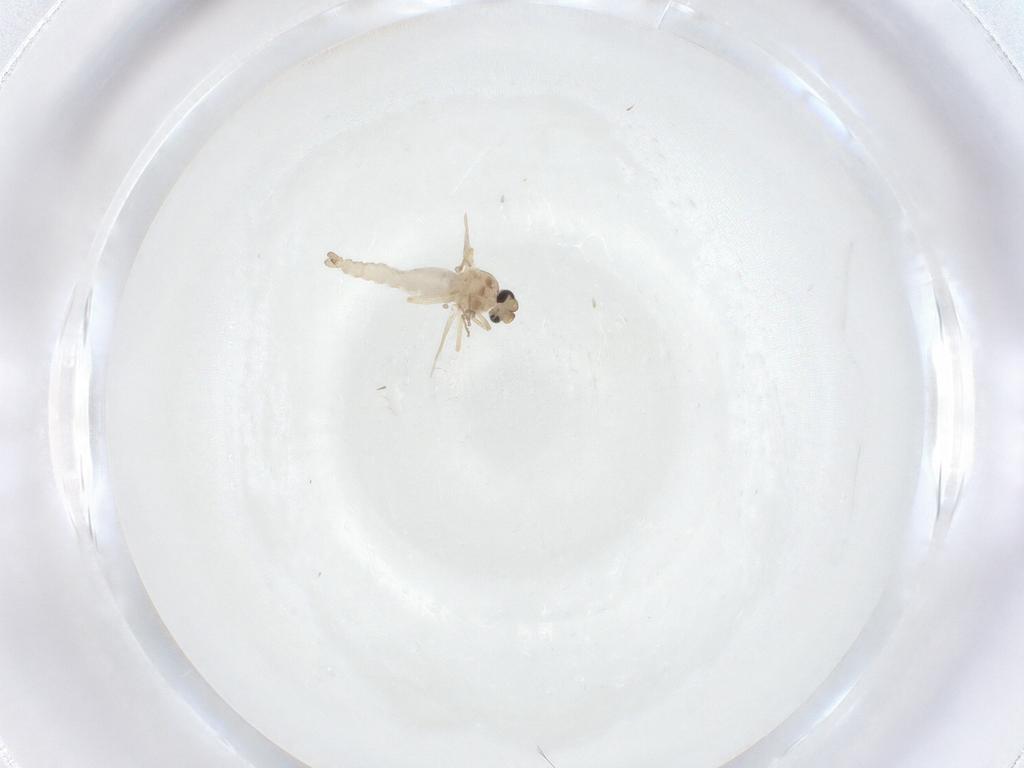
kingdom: Animalia
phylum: Arthropoda
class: Insecta
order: Diptera
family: Ceratopogonidae
